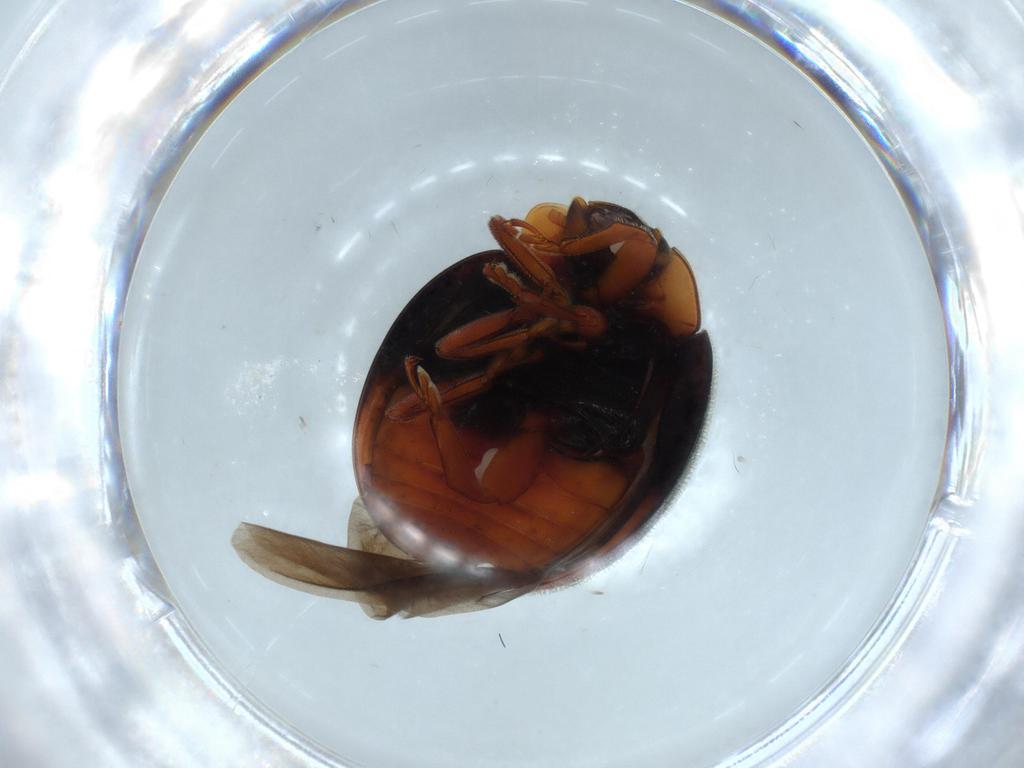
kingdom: Animalia
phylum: Arthropoda
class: Insecta
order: Coleoptera
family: Coccinellidae
